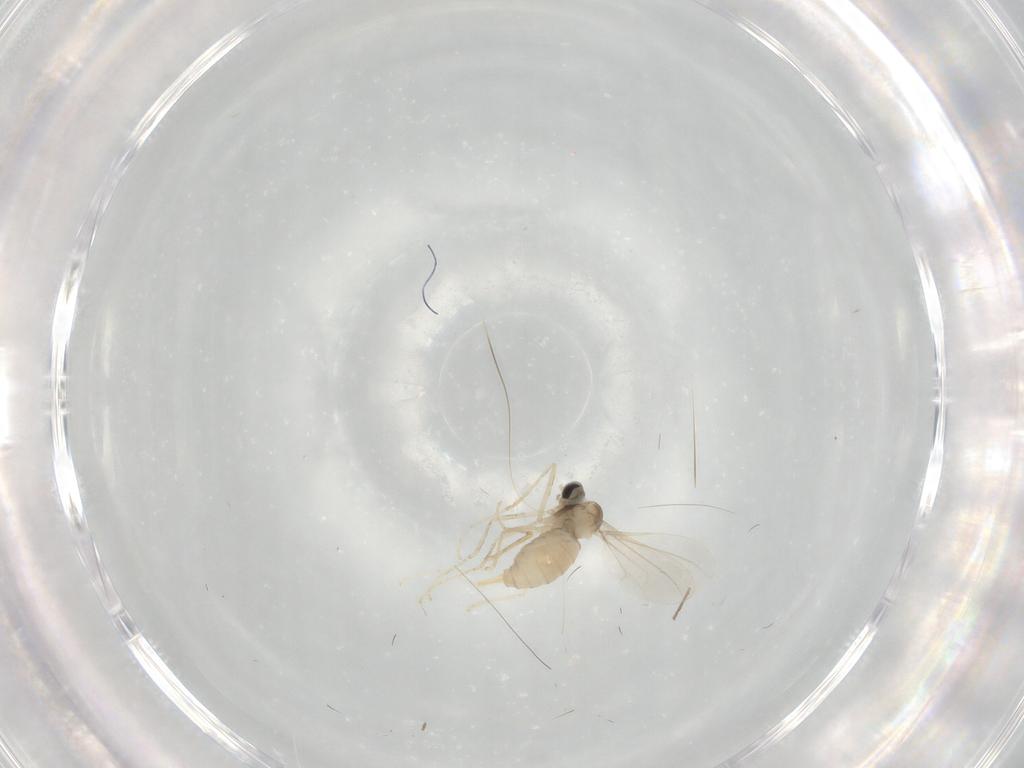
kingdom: Animalia
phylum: Arthropoda
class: Insecta
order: Diptera
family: Cecidomyiidae
